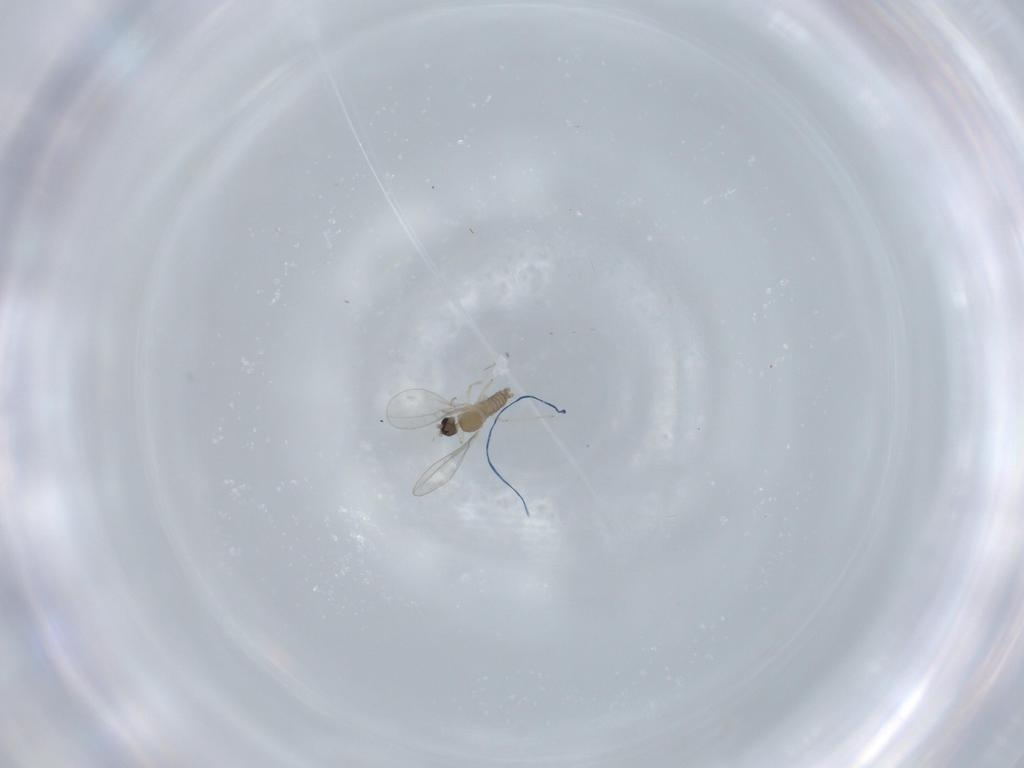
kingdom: Animalia
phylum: Arthropoda
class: Insecta
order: Diptera
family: Cecidomyiidae
